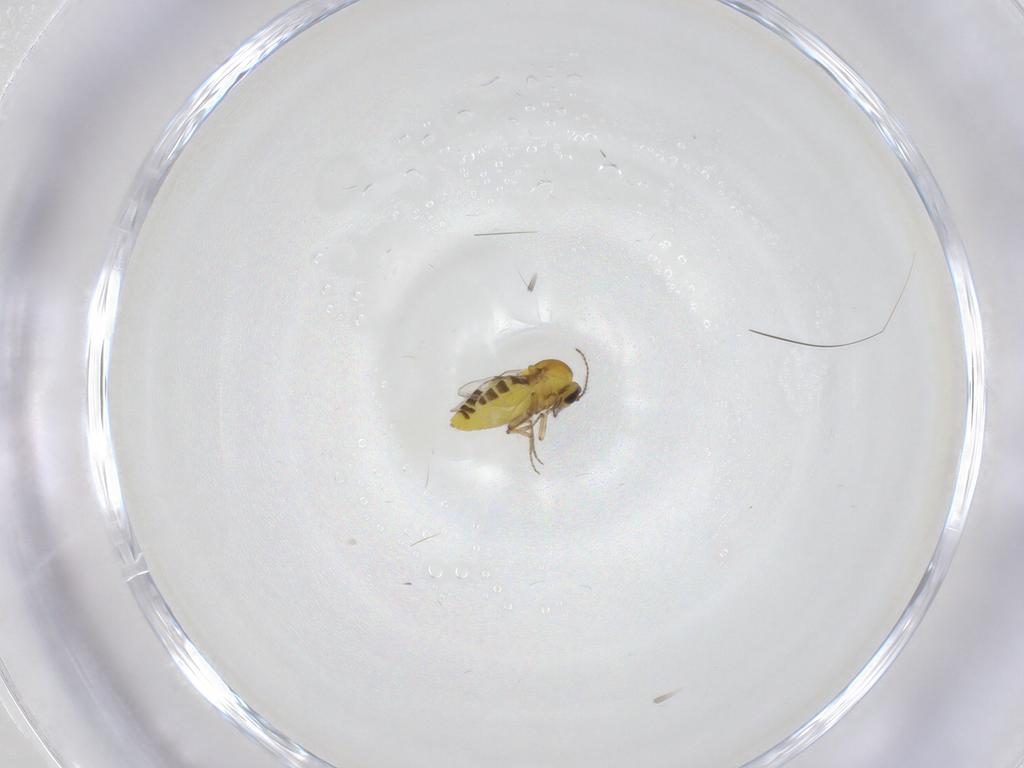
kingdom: Animalia
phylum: Arthropoda
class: Insecta
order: Diptera
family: Ceratopogonidae
